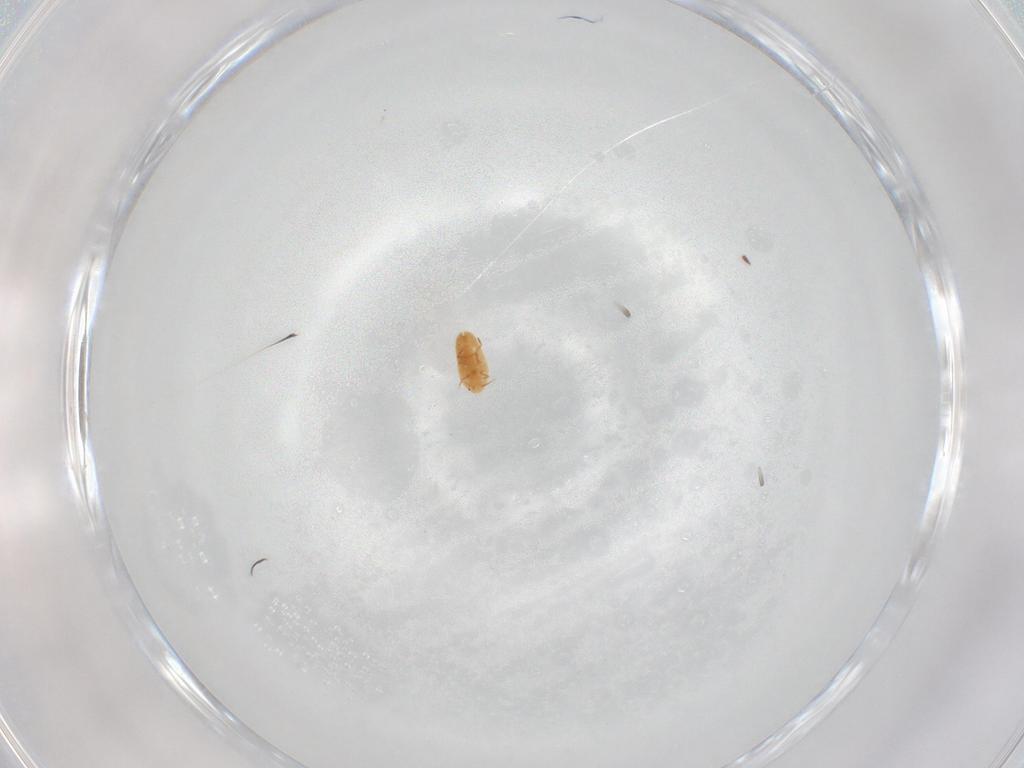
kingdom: Animalia
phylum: Arthropoda
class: Insecta
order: Hemiptera
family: Coccidae
